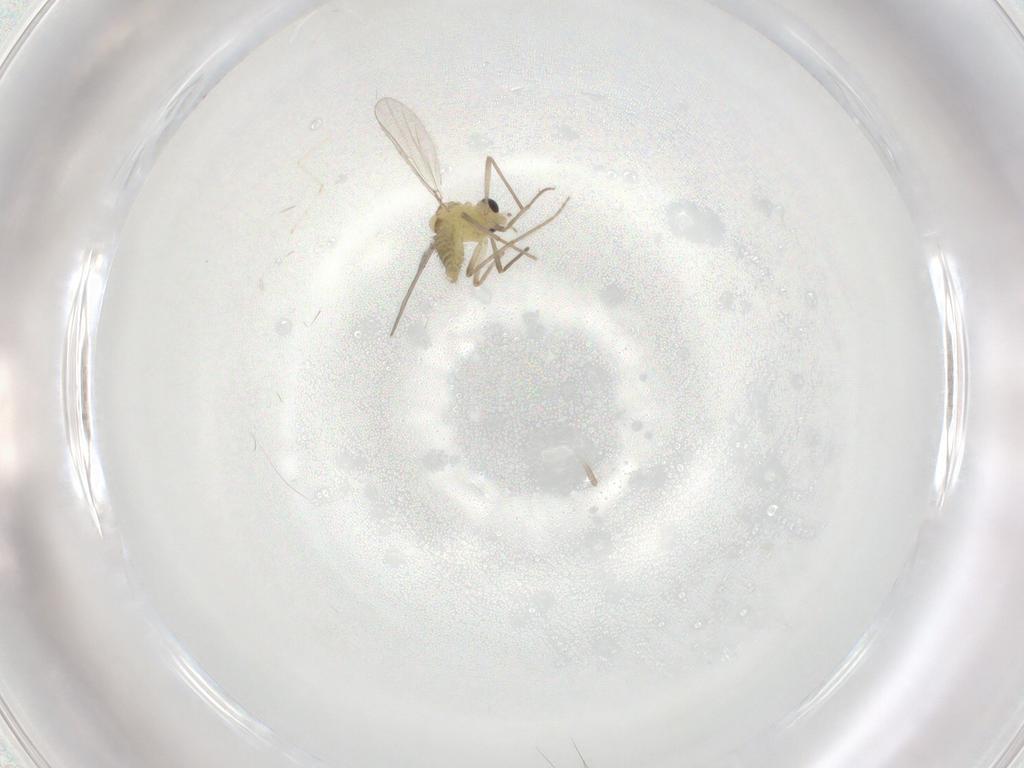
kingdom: Animalia
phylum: Arthropoda
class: Insecta
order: Diptera
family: Chironomidae
